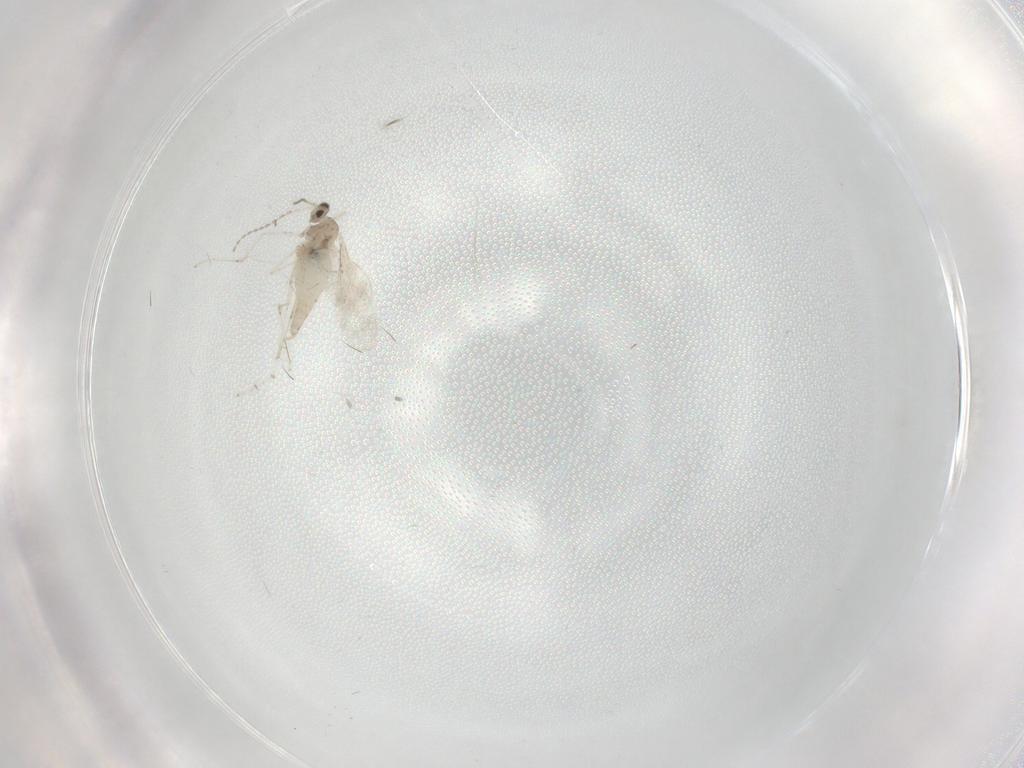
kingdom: Animalia
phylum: Arthropoda
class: Insecta
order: Diptera
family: Cecidomyiidae
